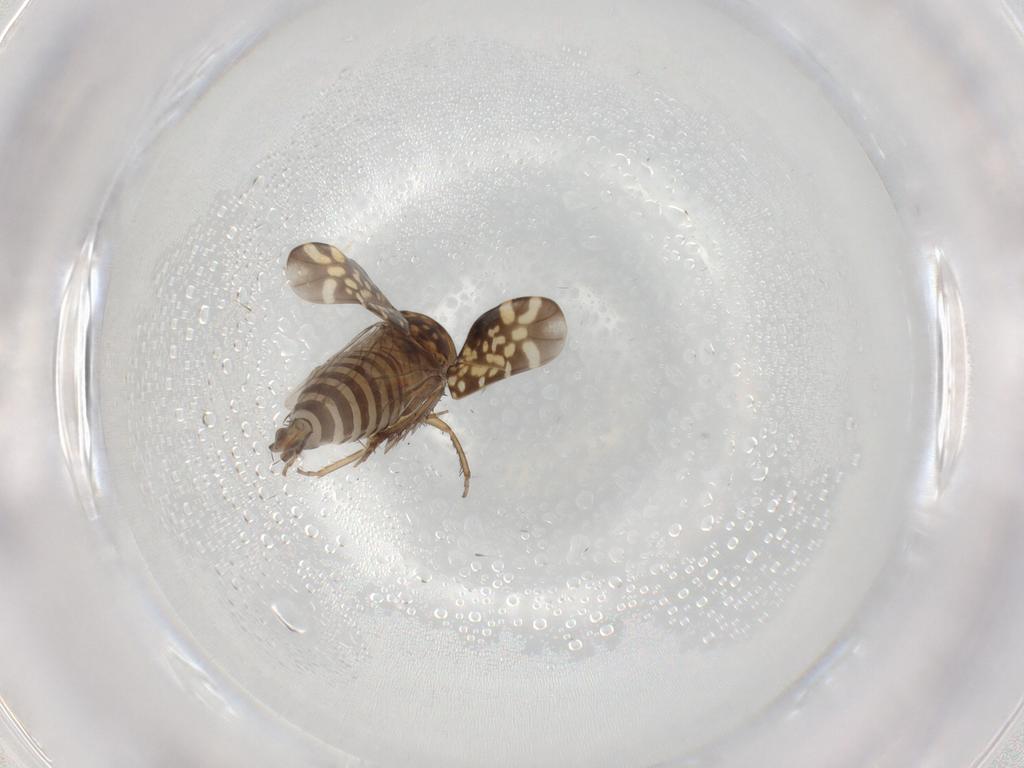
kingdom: Animalia
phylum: Arthropoda
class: Insecta
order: Hemiptera
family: Cicadellidae
